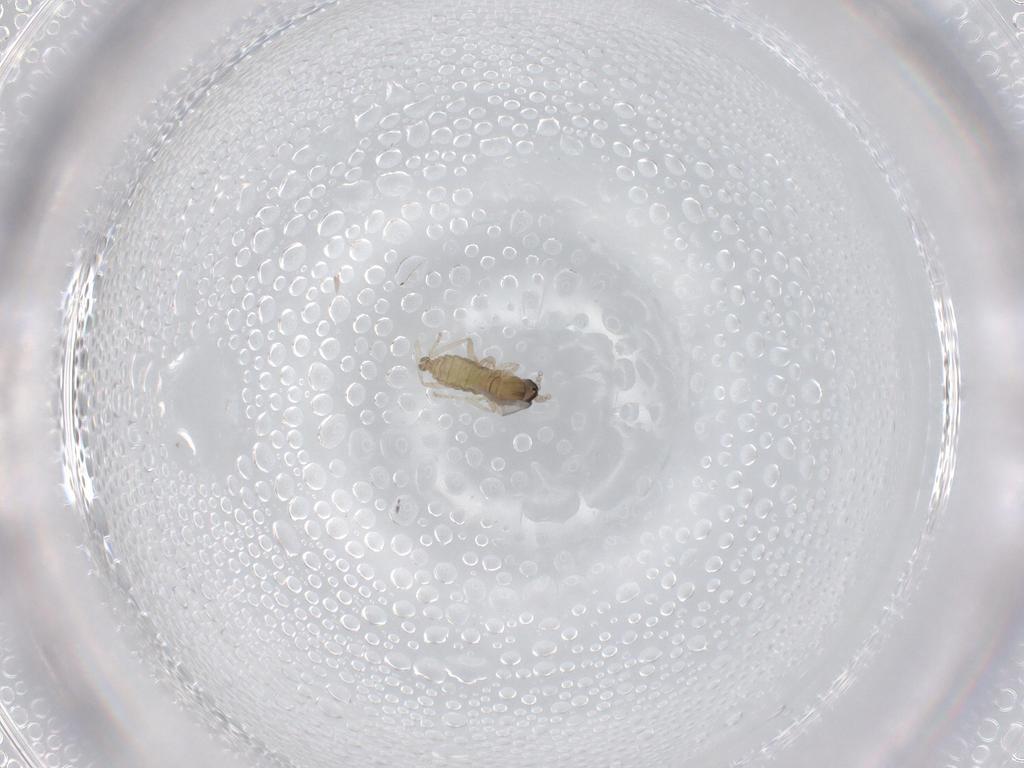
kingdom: Animalia
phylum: Arthropoda
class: Insecta
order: Diptera
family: Cecidomyiidae
